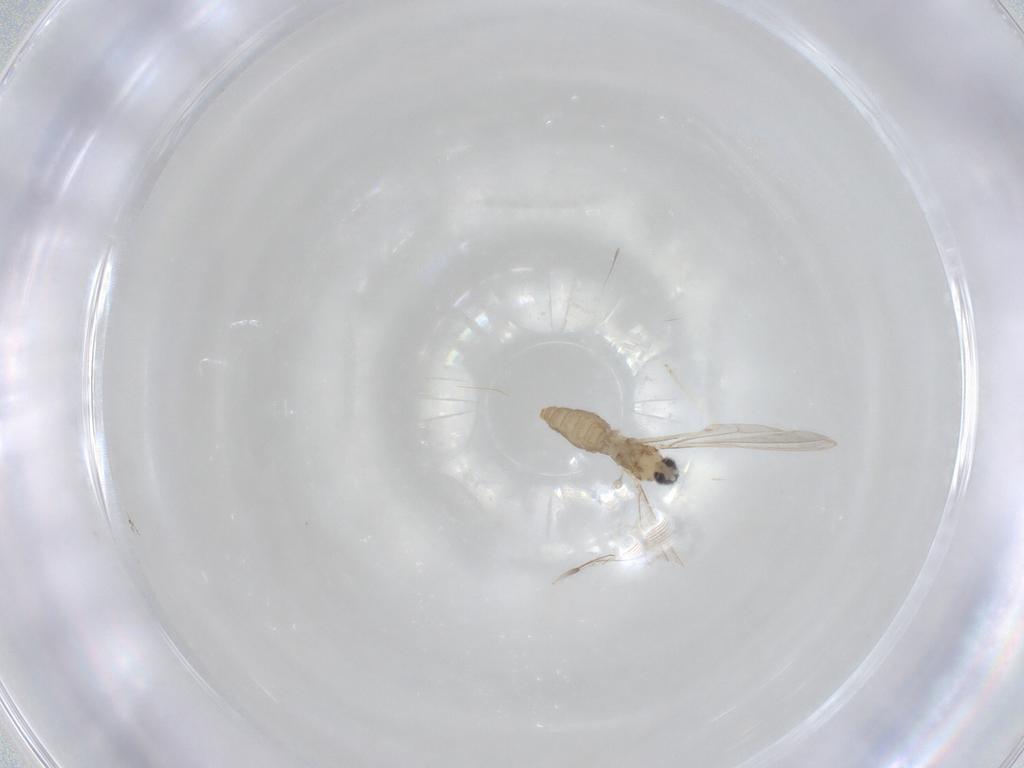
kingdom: Animalia
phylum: Arthropoda
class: Insecta
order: Diptera
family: Cecidomyiidae
